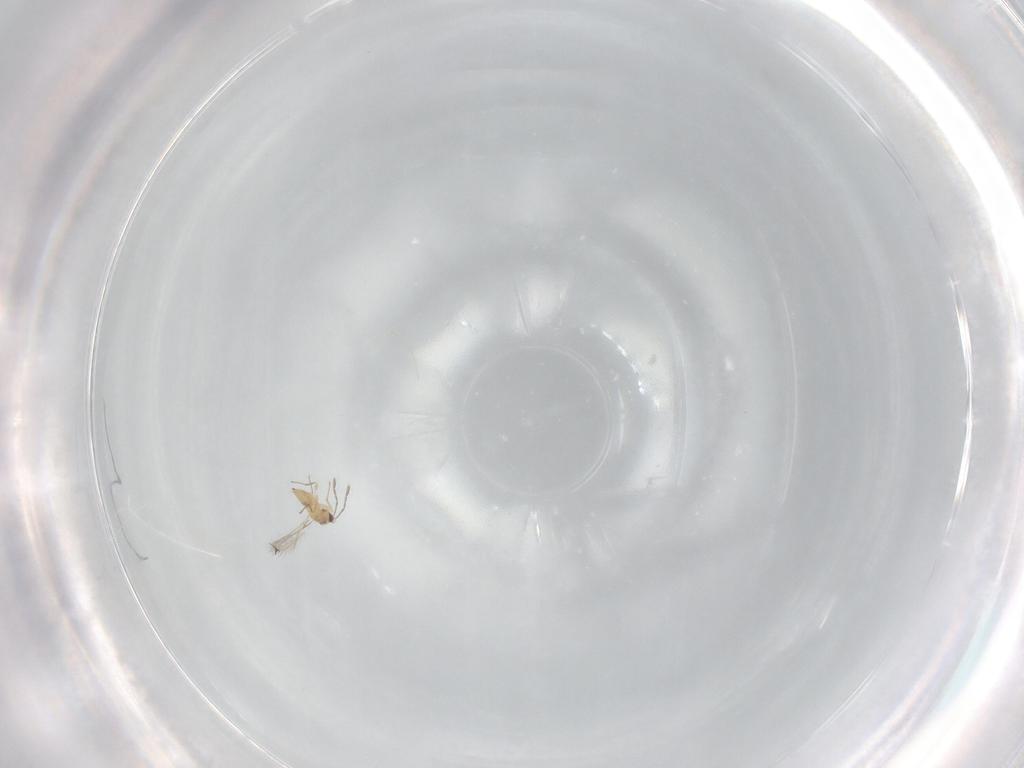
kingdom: Animalia
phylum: Arthropoda
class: Insecta
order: Hymenoptera
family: Mymaridae
